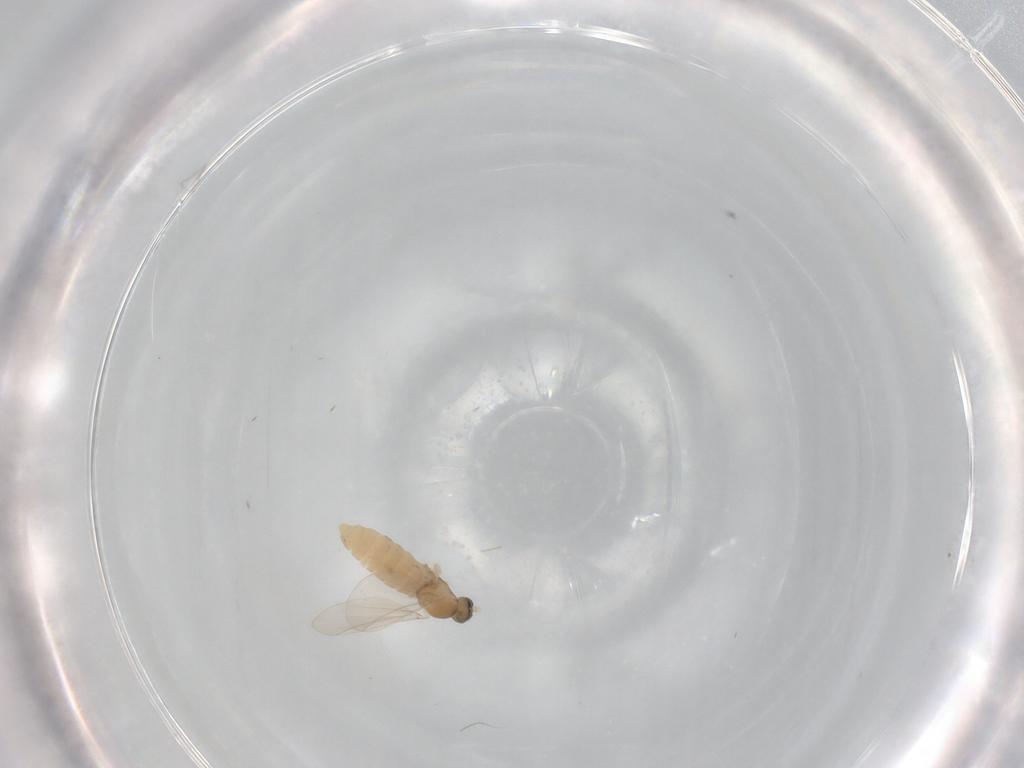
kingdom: Animalia
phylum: Arthropoda
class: Insecta
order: Diptera
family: Cecidomyiidae
